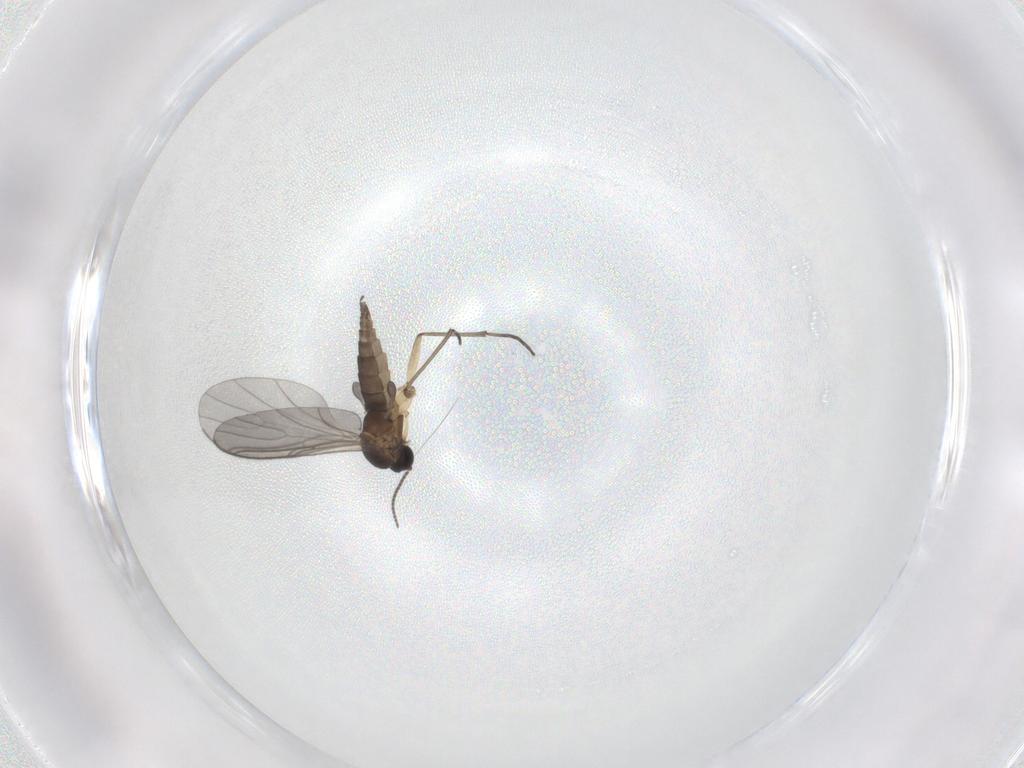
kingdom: Animalia
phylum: Arthropoda
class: Insecta
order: Diptera
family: Sciaridae
